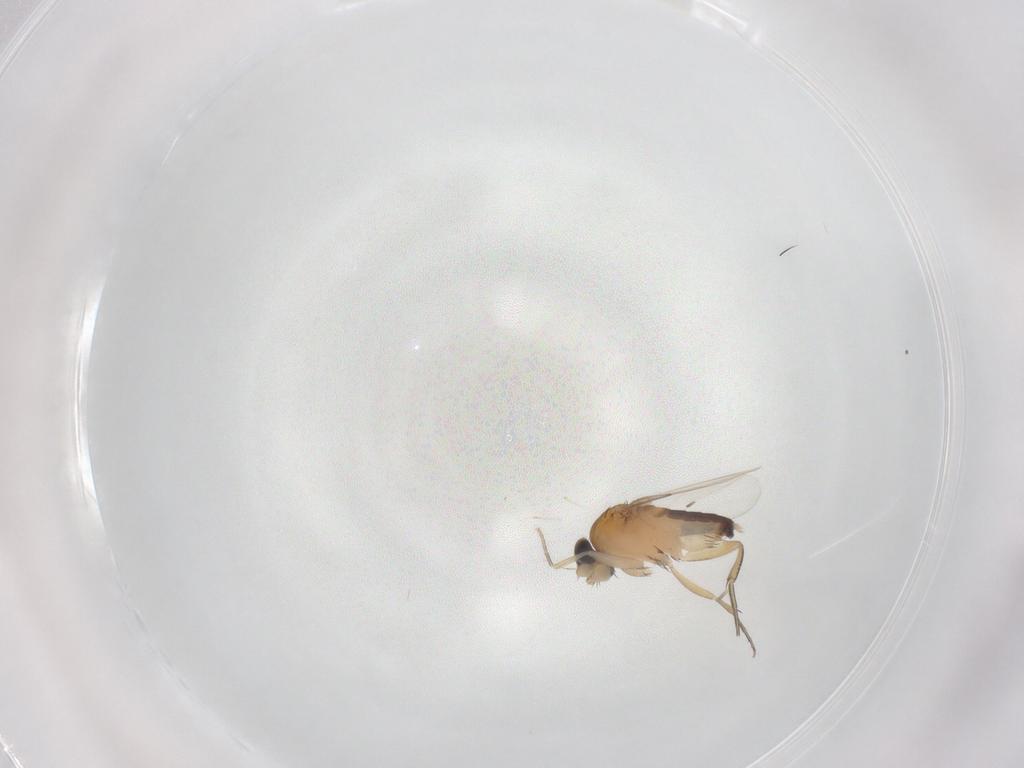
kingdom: Animalia
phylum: Arthropoda
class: Insecta
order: Diptera
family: Phoridae
